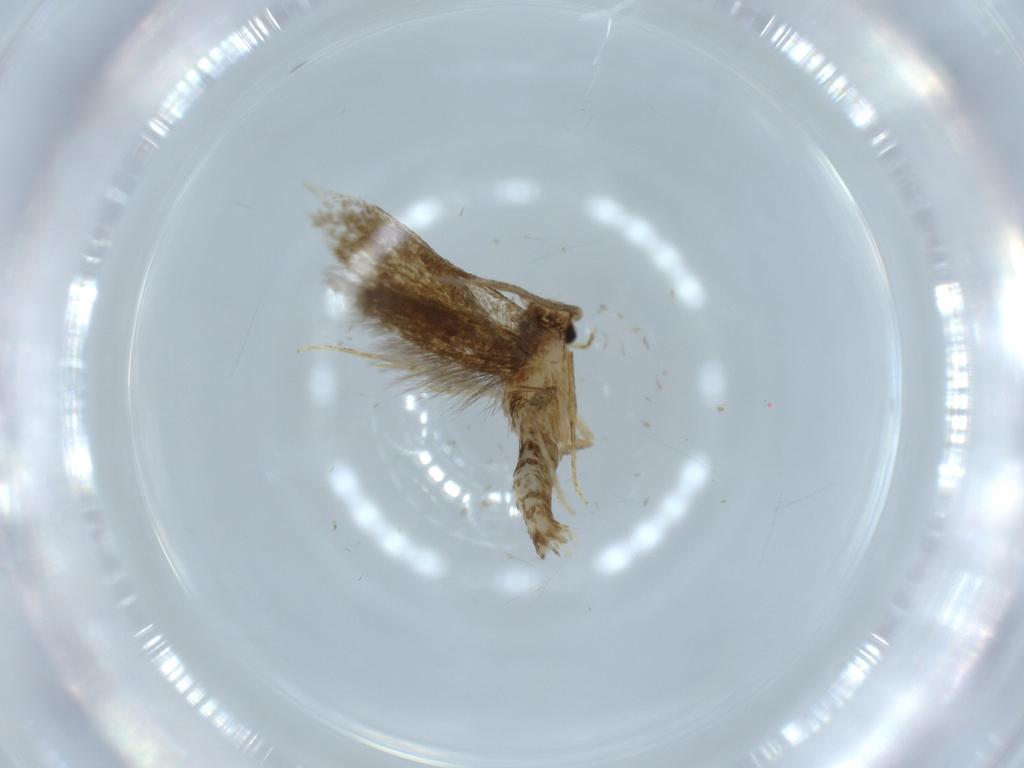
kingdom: Animalia
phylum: Arthropoda
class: Insecta
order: Lepidoptera
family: Tineidae
